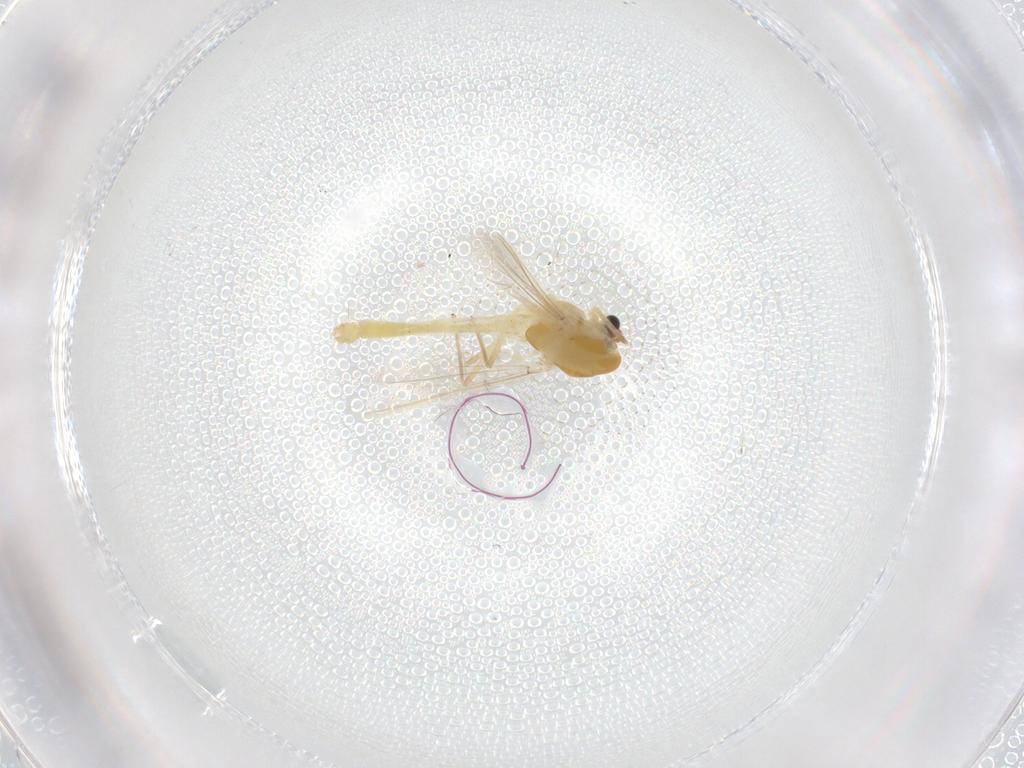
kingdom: Animalia
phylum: Arthropoda
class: Insecta
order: Diptera
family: Chironomidae
